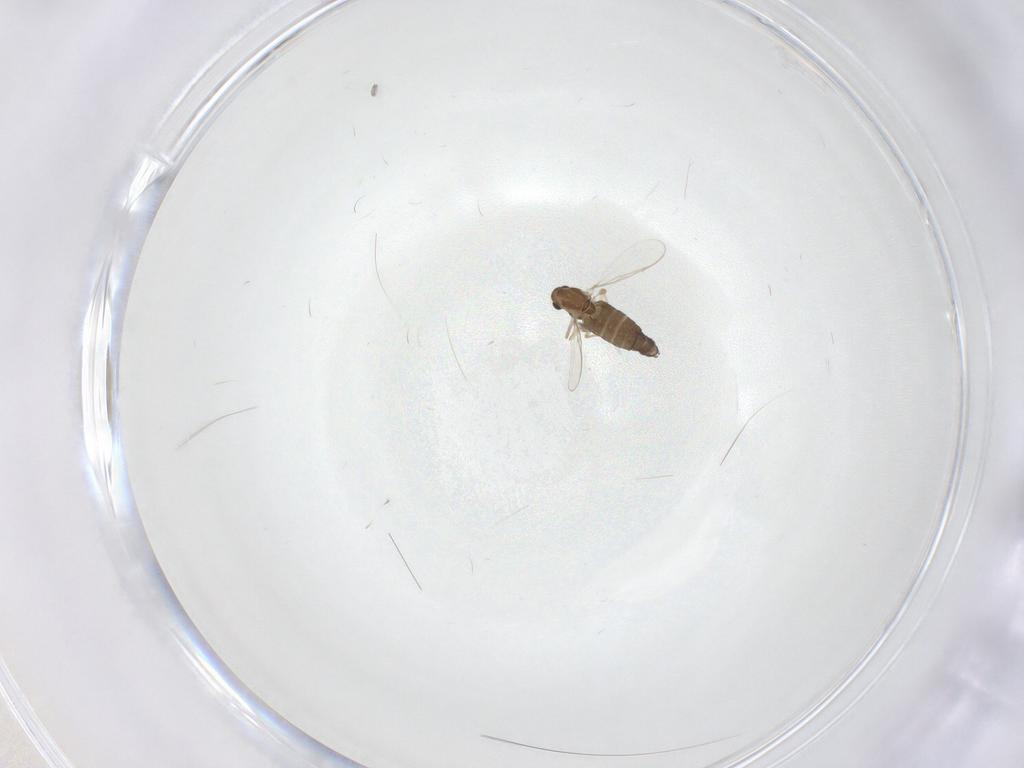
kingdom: Animalia
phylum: Arthropoda
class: Insecta
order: Diptera
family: Chironomidae
